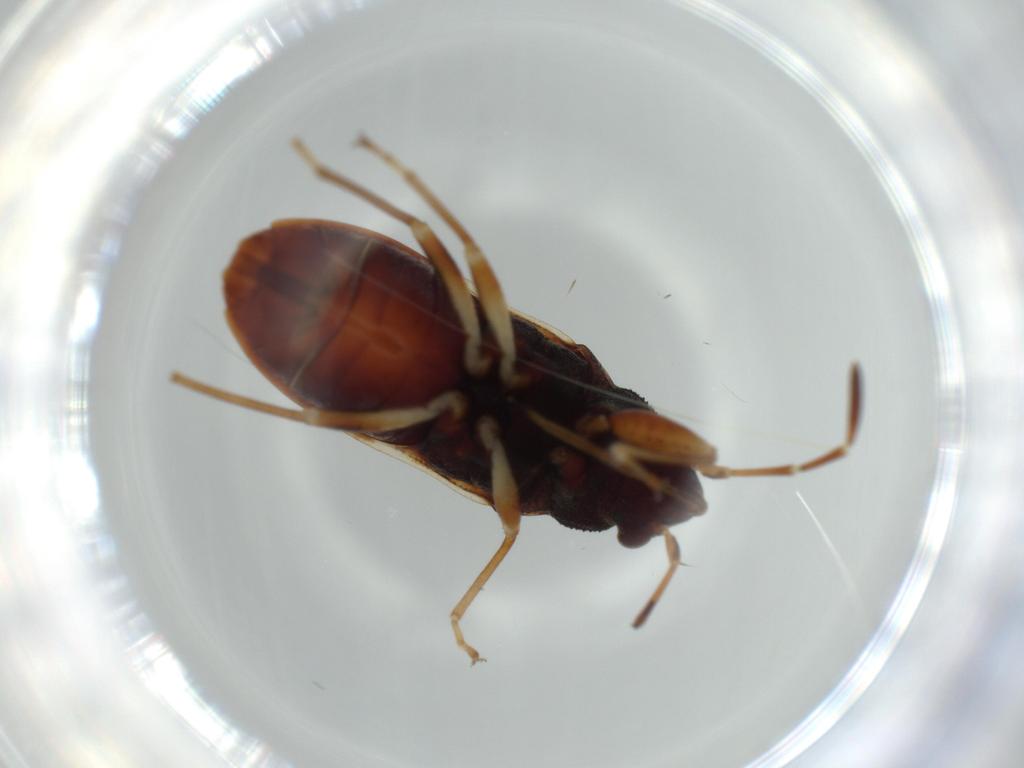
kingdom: Animalia
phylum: Arthropoda
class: Insecta
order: Hemiptera
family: Rhyparochromidae
